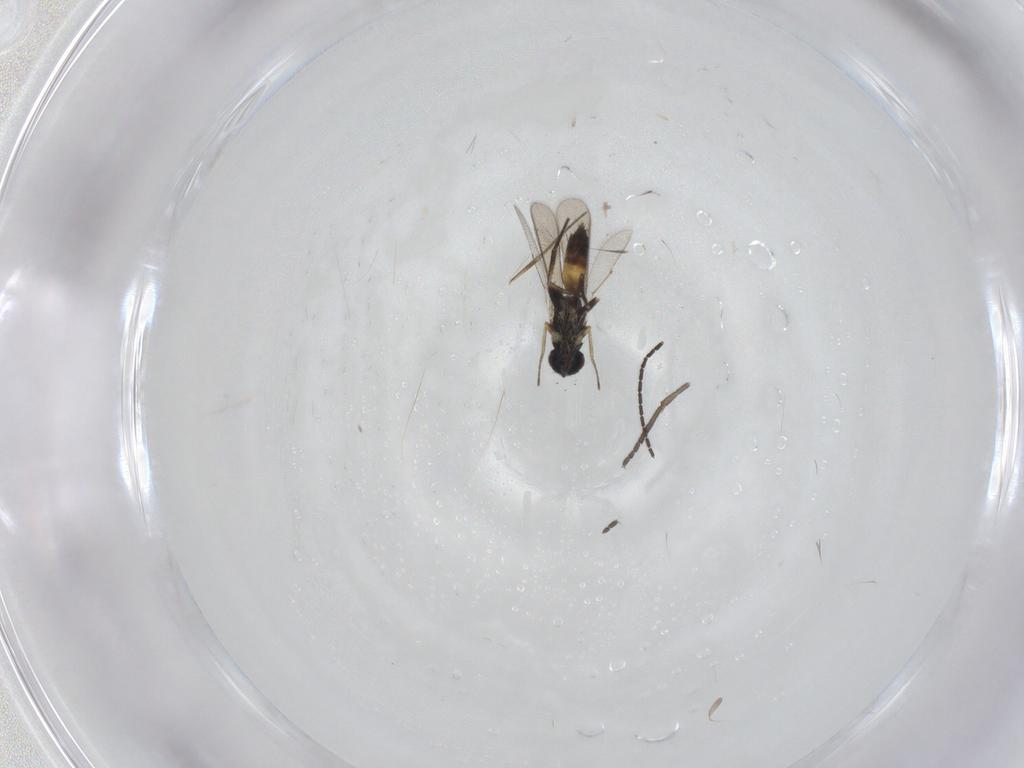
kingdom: Animalia
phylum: Arthropoda
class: Insecta
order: Hymenoptera
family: Eulophidae
